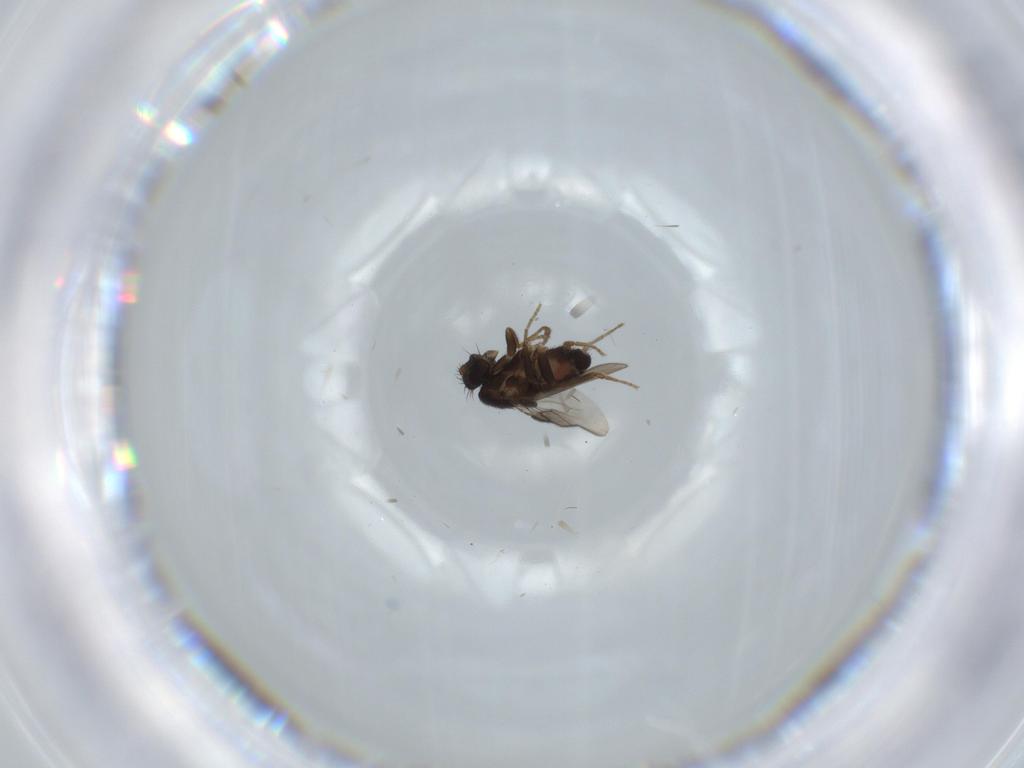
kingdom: Animalia
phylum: Arthropoda
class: Insecta
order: Diptera
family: Sphaeroceridae
